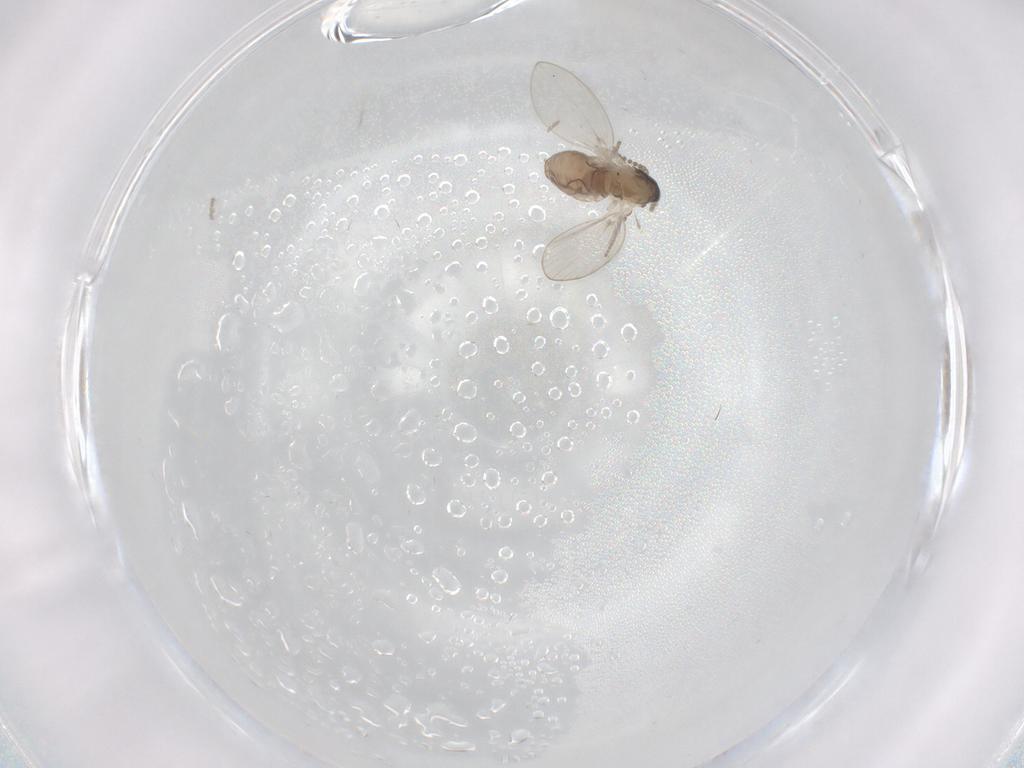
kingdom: Animalia
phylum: Arthropoda
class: Insecta
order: Diptera
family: Psychodidae
